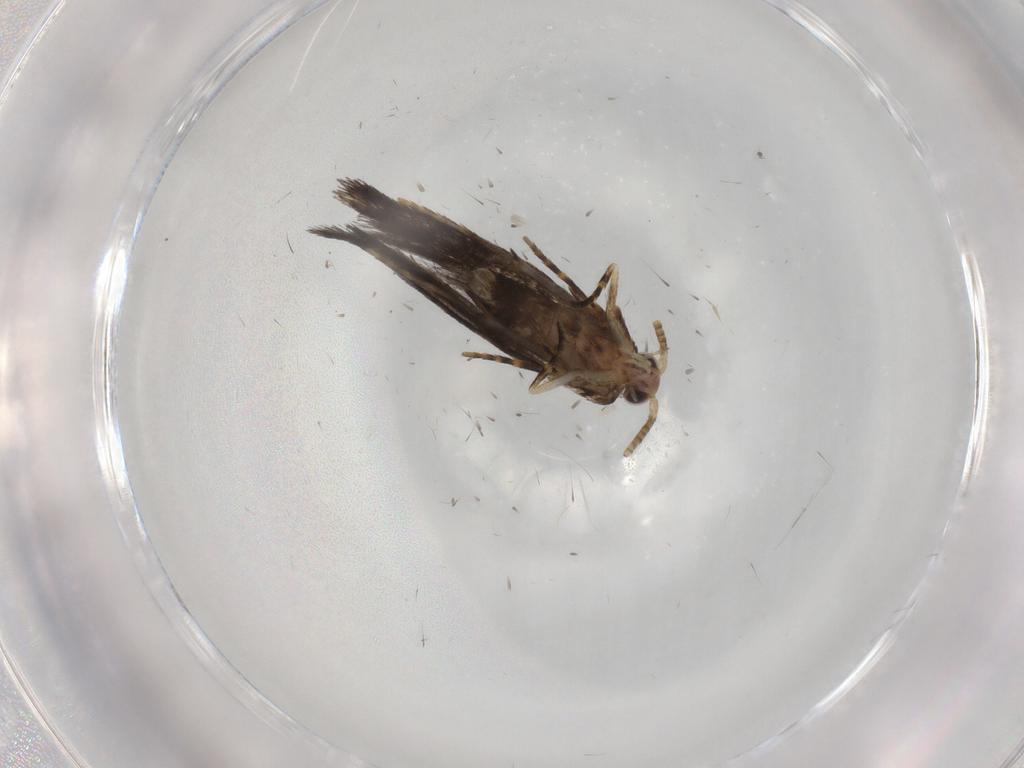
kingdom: Animalia
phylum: Arthropoda
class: Insecta
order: Lepidoptera
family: Tineidae
